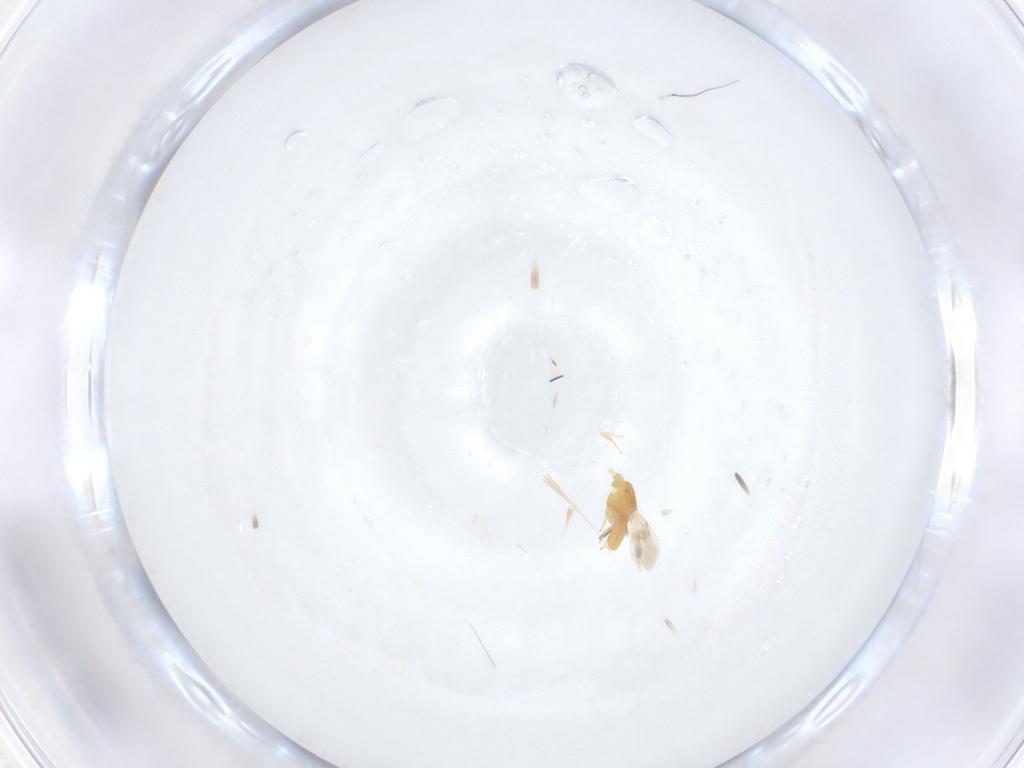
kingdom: Animalia
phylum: Arthropoda
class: Insecta
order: Hymenoptera
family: Scelionidae
